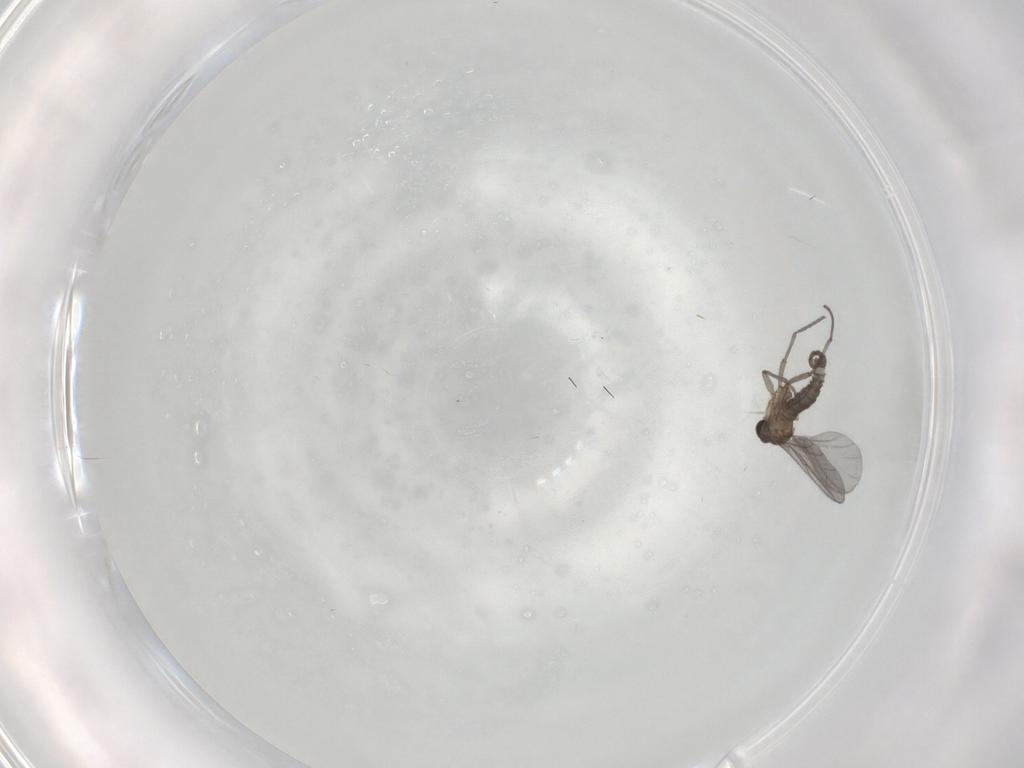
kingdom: Animalia
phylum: Arthropoda
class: Insecta
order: Diptera
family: Sciaridae
